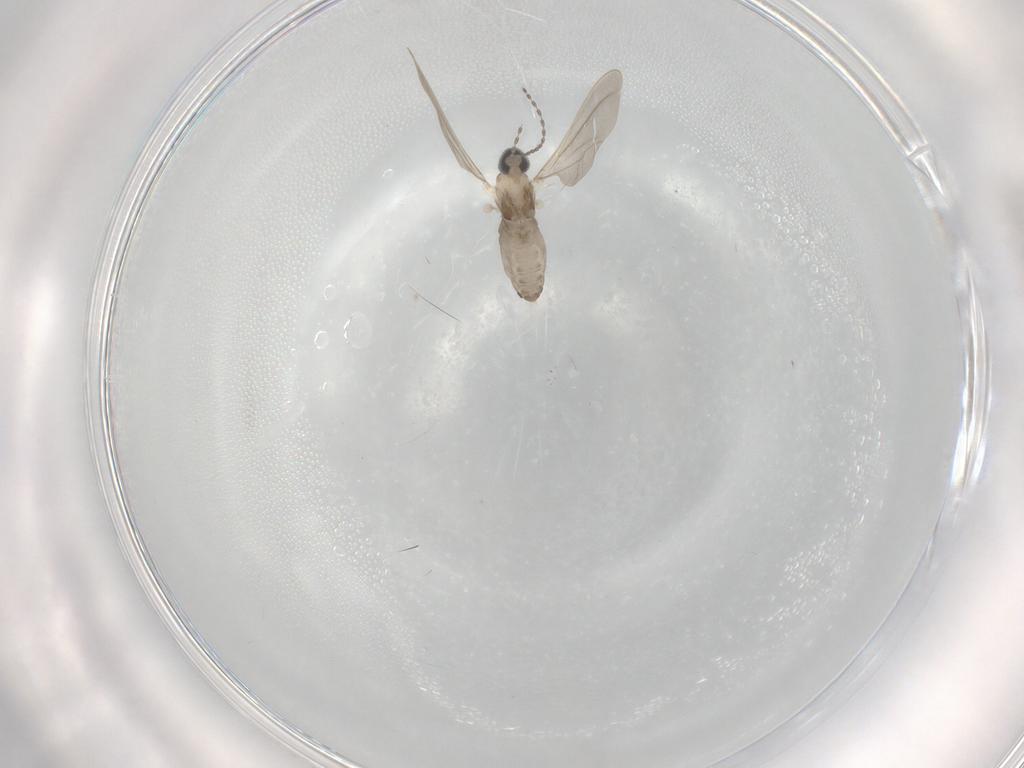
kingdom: Animalia
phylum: Arthropoda
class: Insecta
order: Diptera
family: Cecidomyiidae
